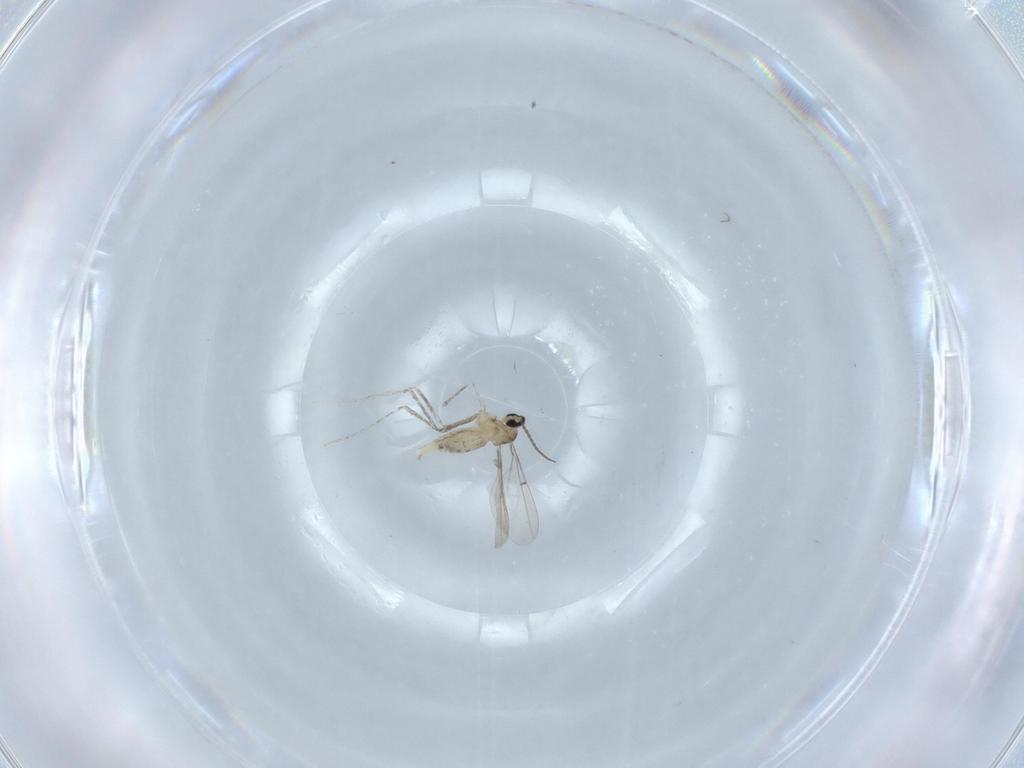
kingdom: Animalia
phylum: Arthropoda
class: Insecta
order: Diptera
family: Cecidomyiidae
